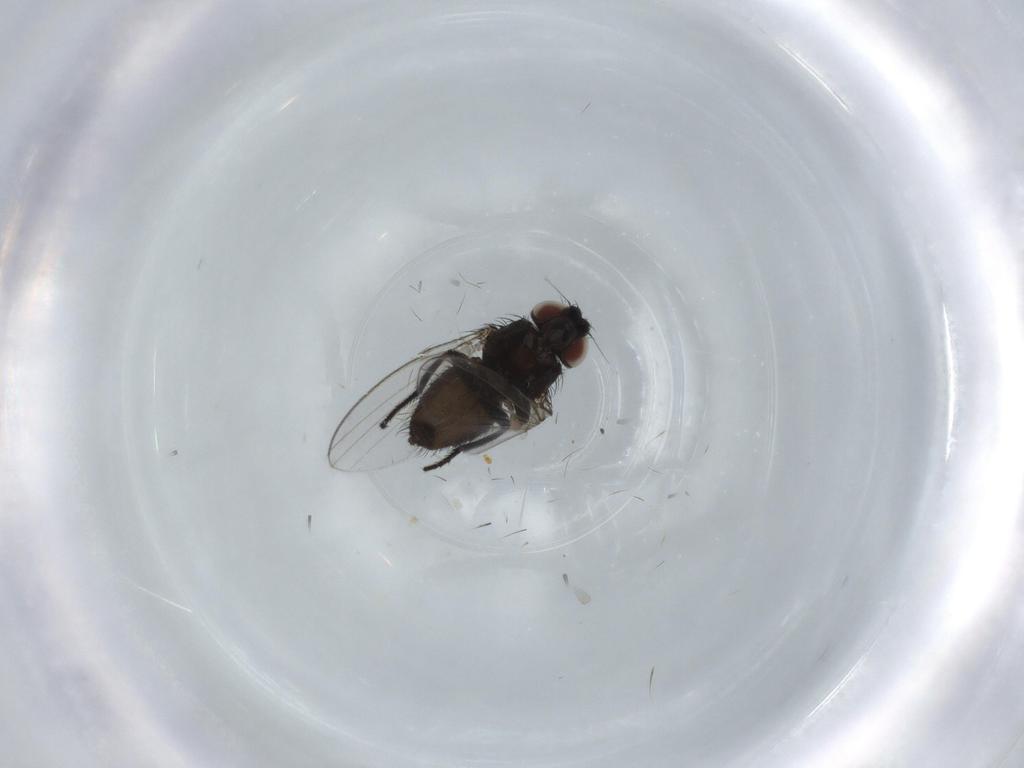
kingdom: Animalia
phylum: Arthropoda
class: Insecta
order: Diptera
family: Milichiidae
